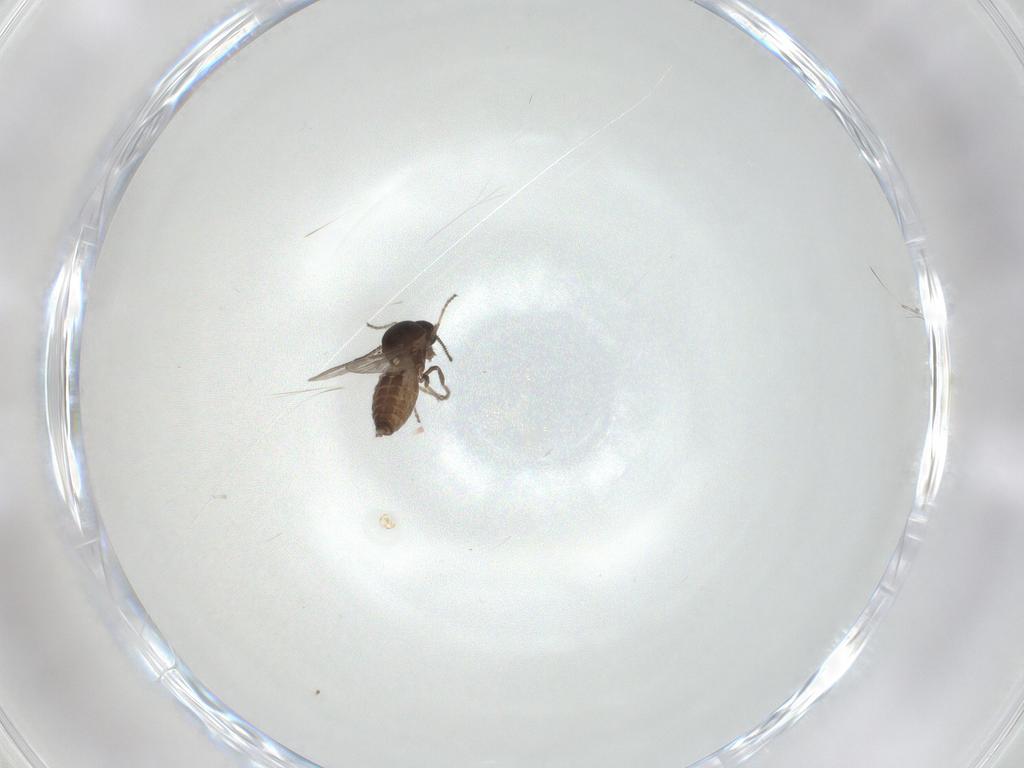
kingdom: Animalia
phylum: Arthropoda
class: Insecta
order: Diptera
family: Ceratopogonidae
